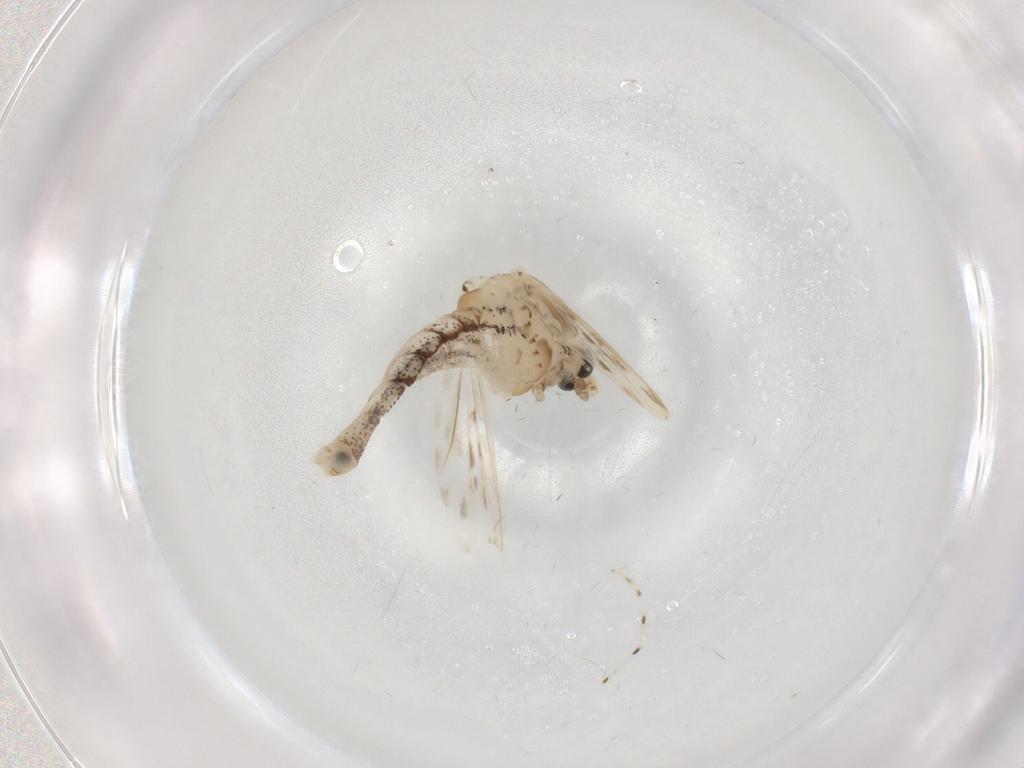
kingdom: Animalia
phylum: Arthropoda
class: Insecta
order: Diptera
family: Chaoboridae
